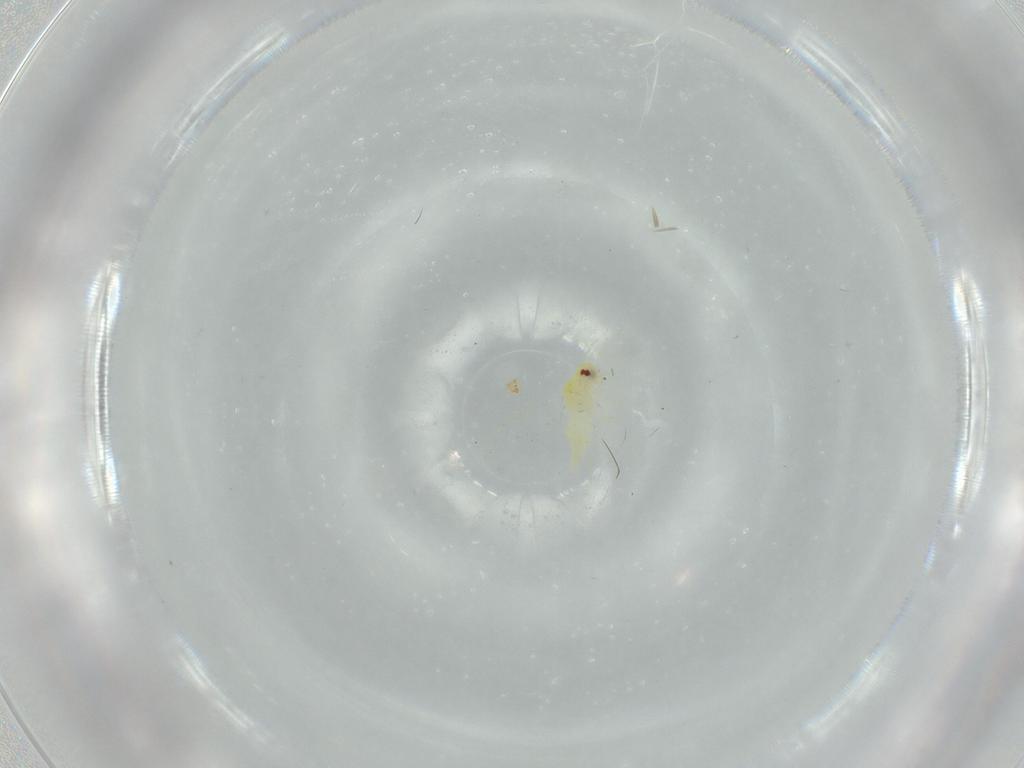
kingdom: Animalia
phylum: Arthropoda
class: Insecta
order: Hemiptera
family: Aleyrodidae
